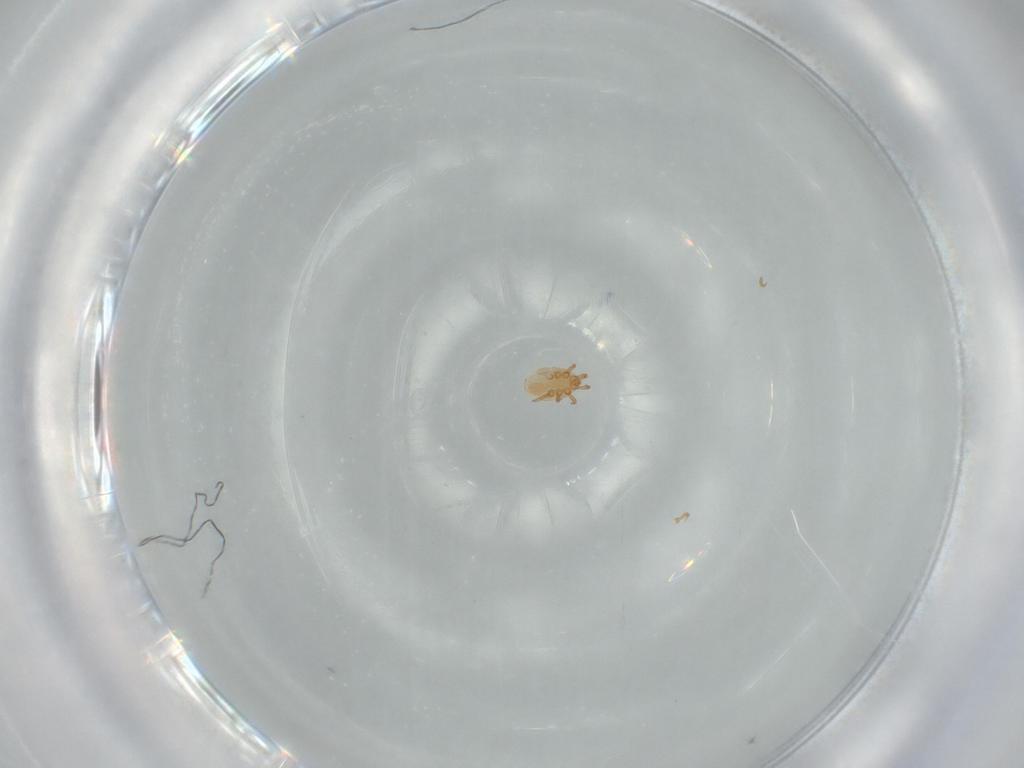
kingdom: Animalia
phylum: Arthropoda
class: Arachnida
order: Mesostigmata
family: Dinychidae
